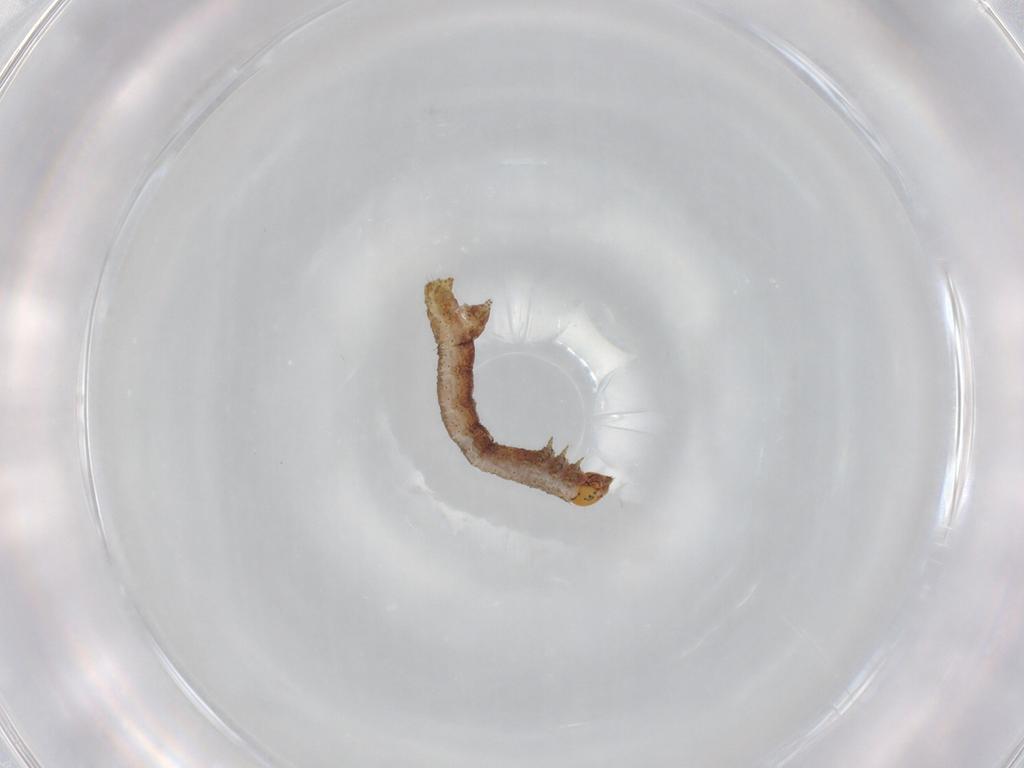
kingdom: Animalia
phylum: Arthropoda
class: Insecta
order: Lepidoptera
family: Geometridae
